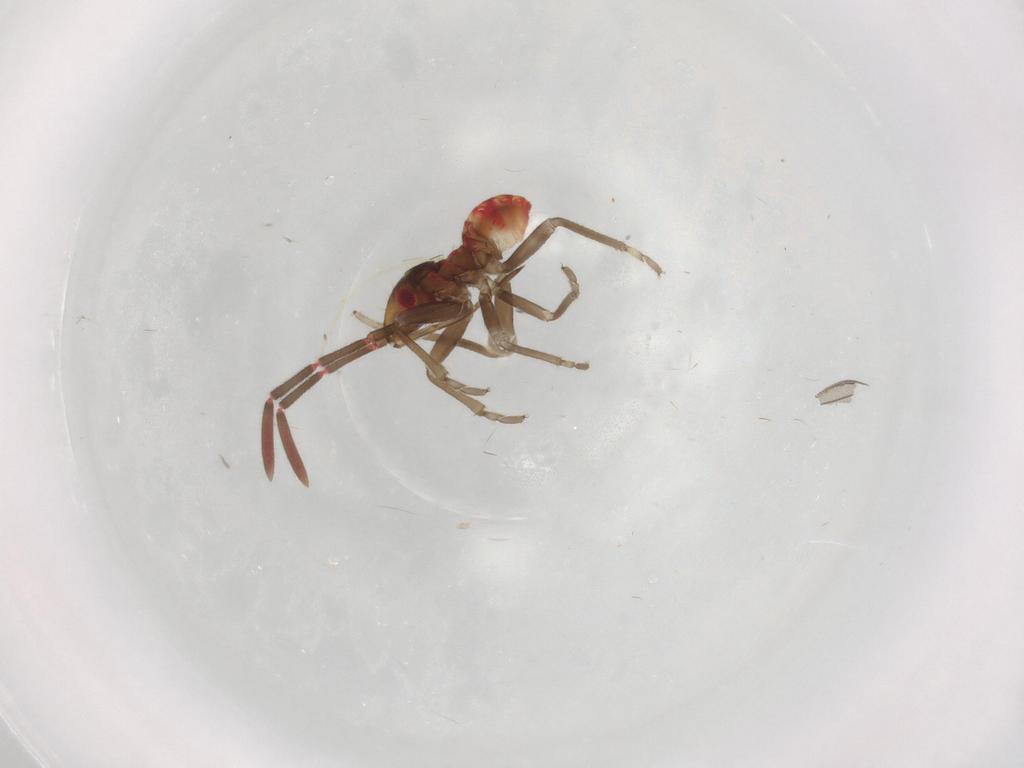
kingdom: Animalia
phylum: Arthropoda
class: Insecta
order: Hemiptera
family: Rhyparochromidae
